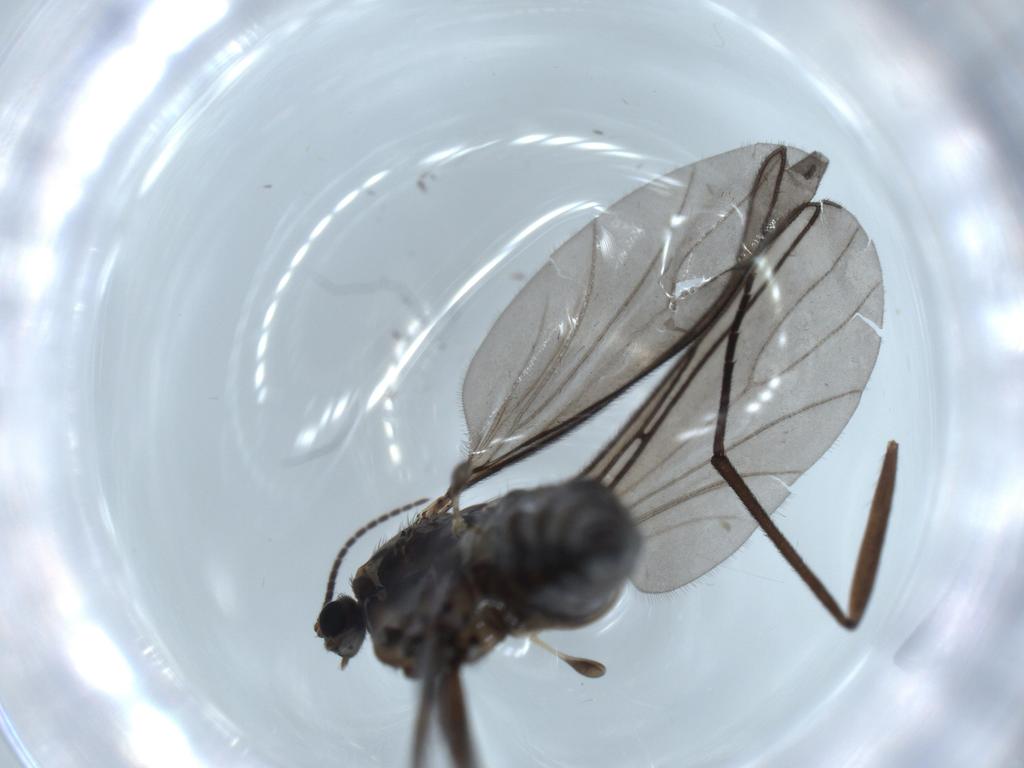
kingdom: Animalia
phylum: Arthropoda
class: Insecta
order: Diptera
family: Sciaridae
